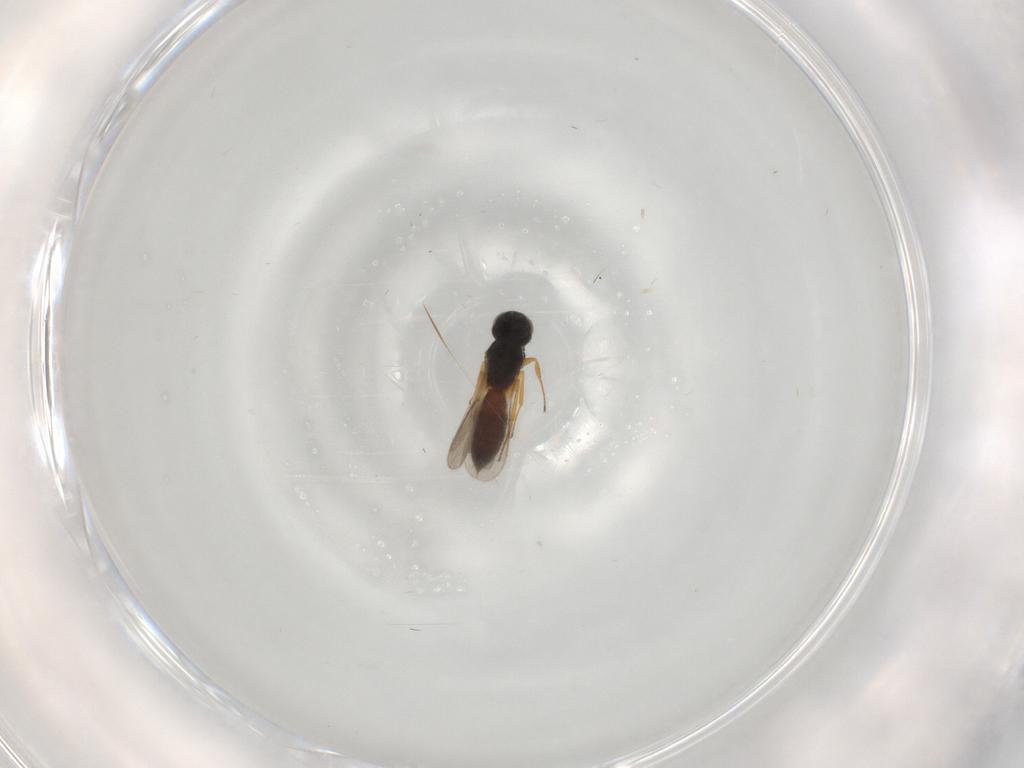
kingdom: Animalia
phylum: Arthropoda
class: Insecta
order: Hymenoptera
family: Scelionidae
